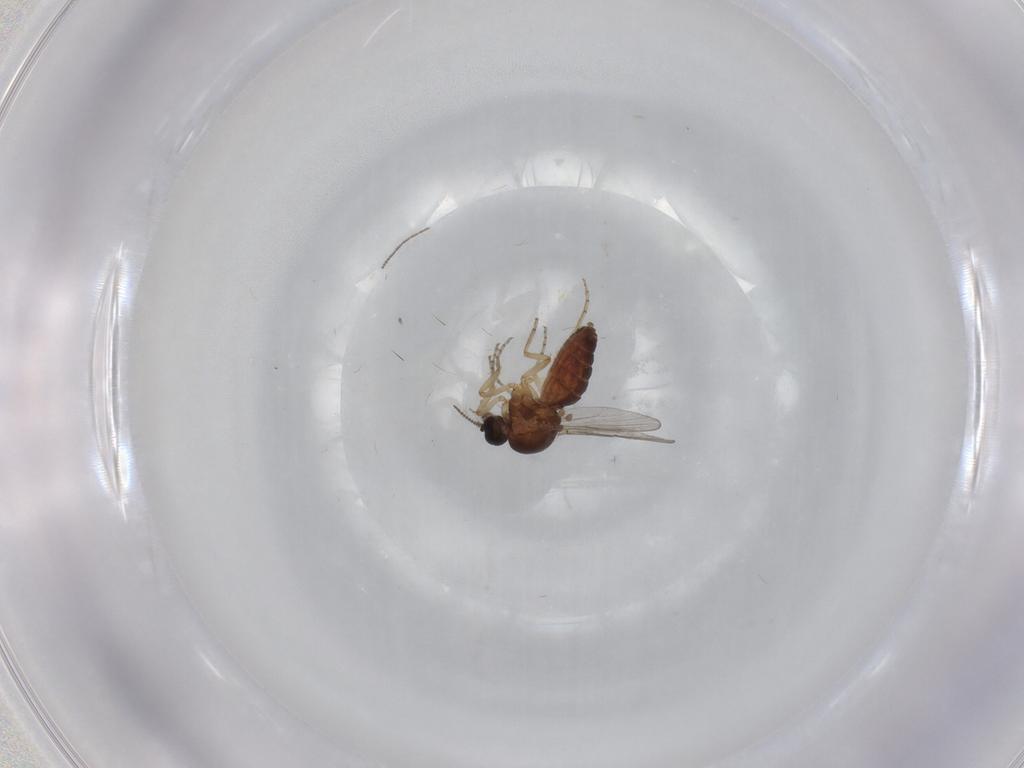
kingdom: Animalia
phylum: Arthropoda
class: Insecta
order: Diptera
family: Ceratopogonidae
